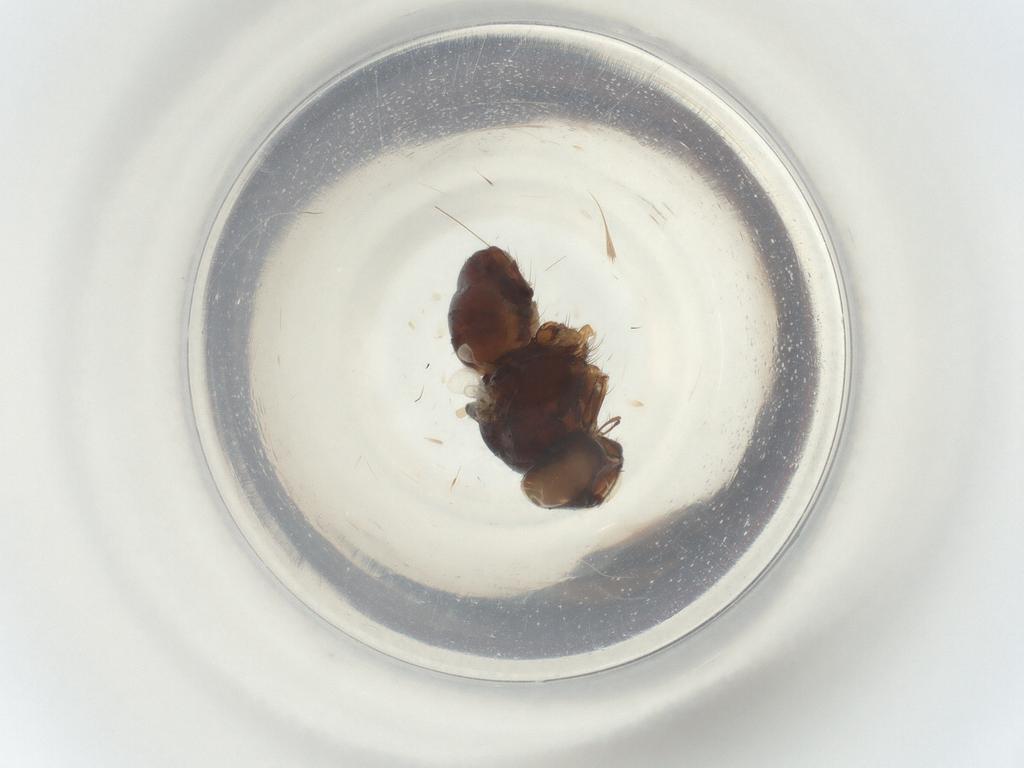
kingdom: Animalia
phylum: Arthropoda
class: Insecta
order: Diptera
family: Muscidae
